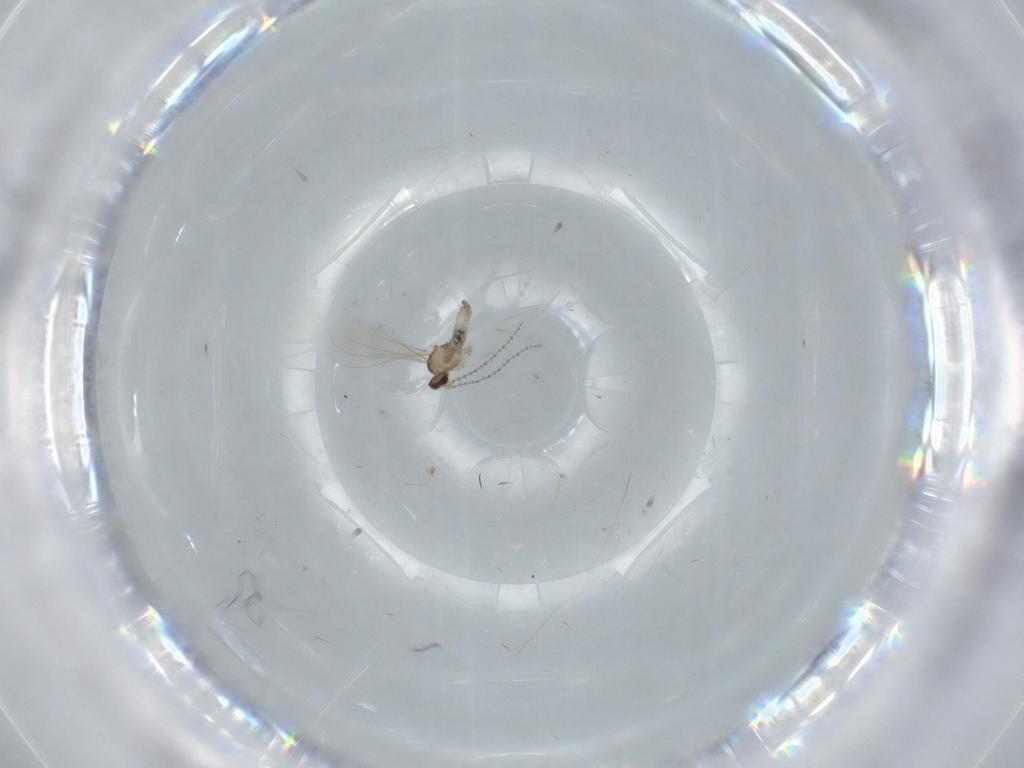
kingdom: Animalia
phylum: Arthropoda
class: Insecta
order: Diptera
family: Cecidomyiidae
